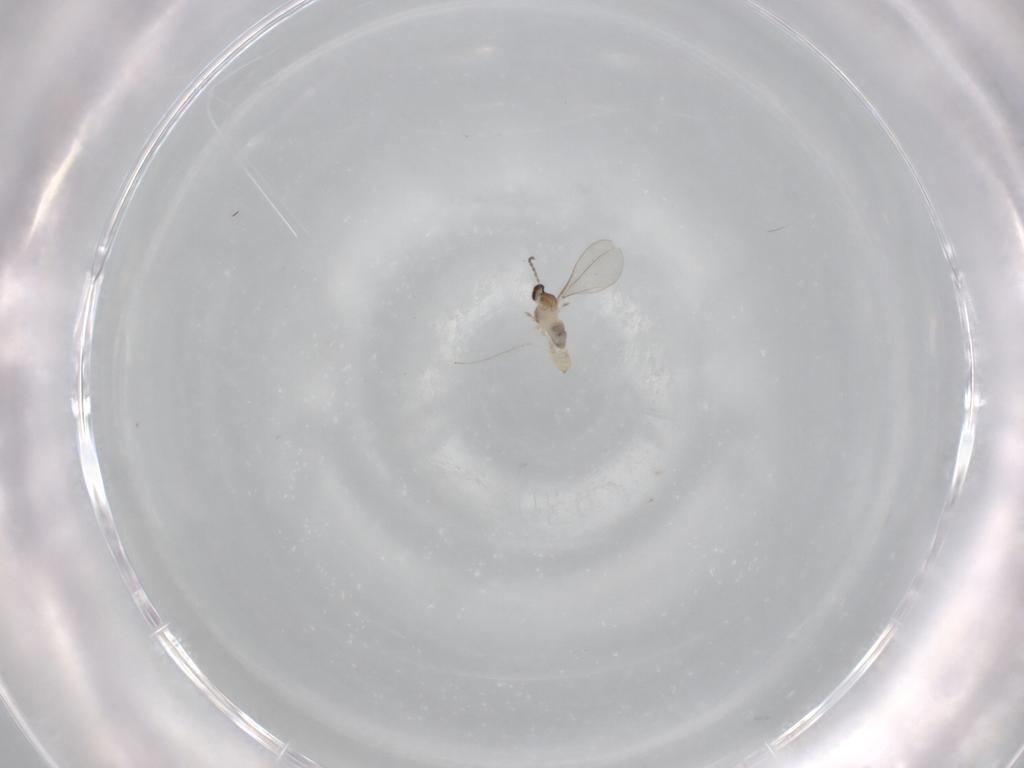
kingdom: Animalia
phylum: Arthropoda
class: Insecta
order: Diptera
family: Cecidomyiidae
